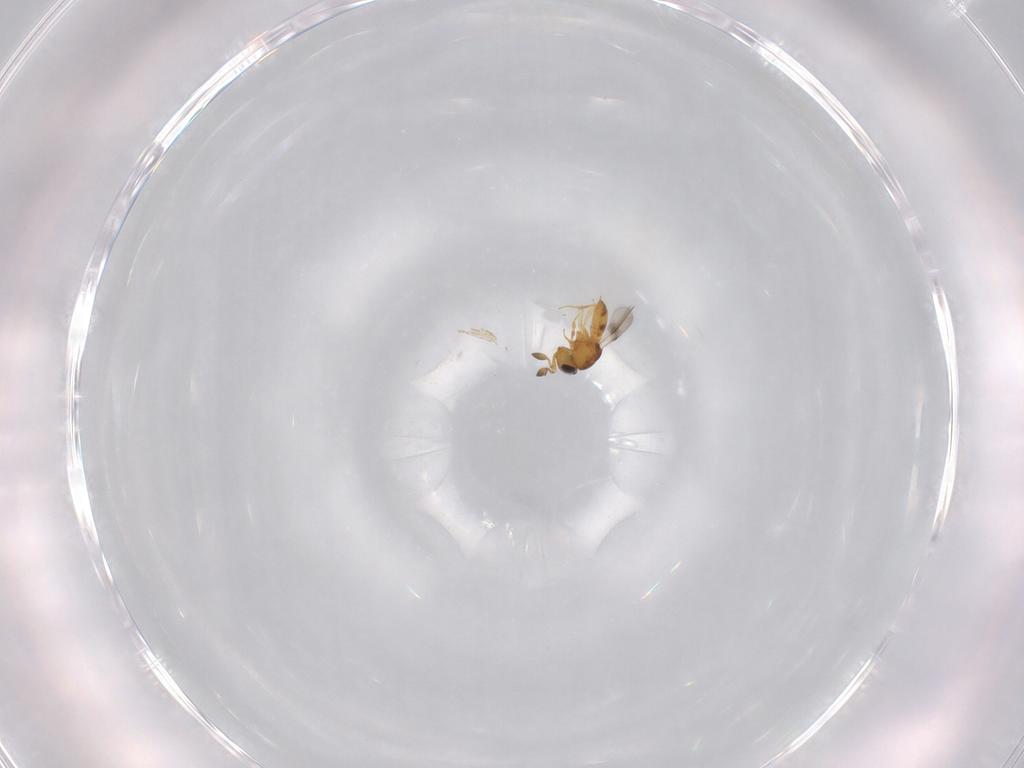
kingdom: Animalia
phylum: Arthropoda
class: Insecta
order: Hymenoptera
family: Scelionidae
